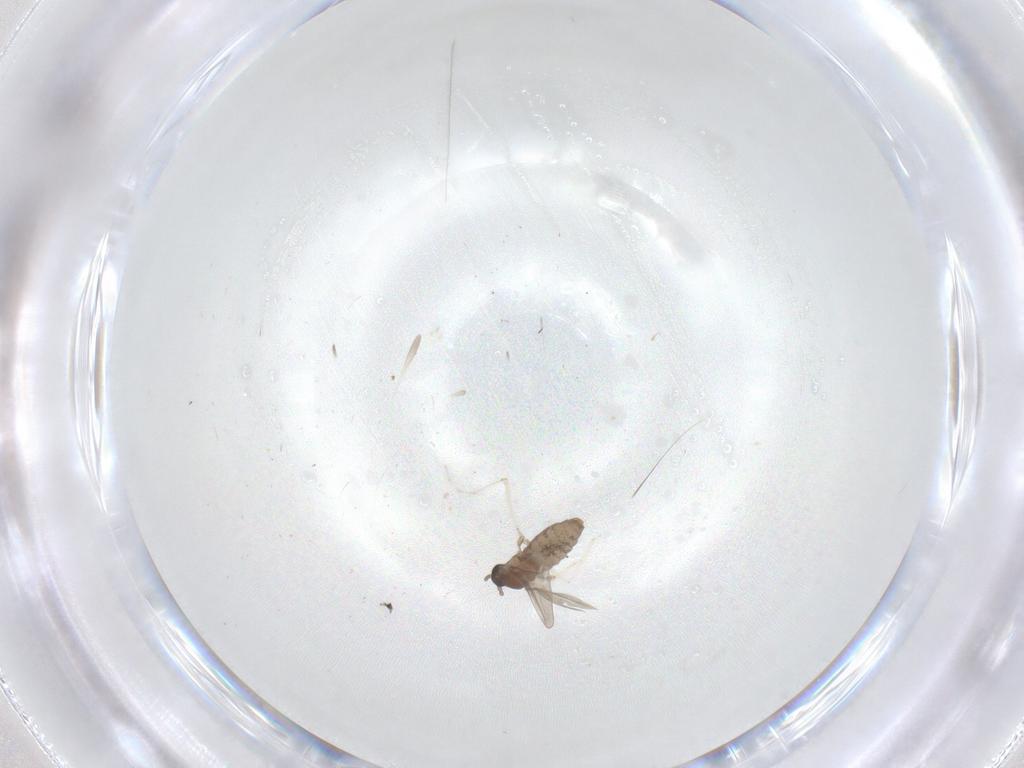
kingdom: Animalia
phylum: Arthropoda
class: Insecta
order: Diptera
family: Cecidomyiidae
